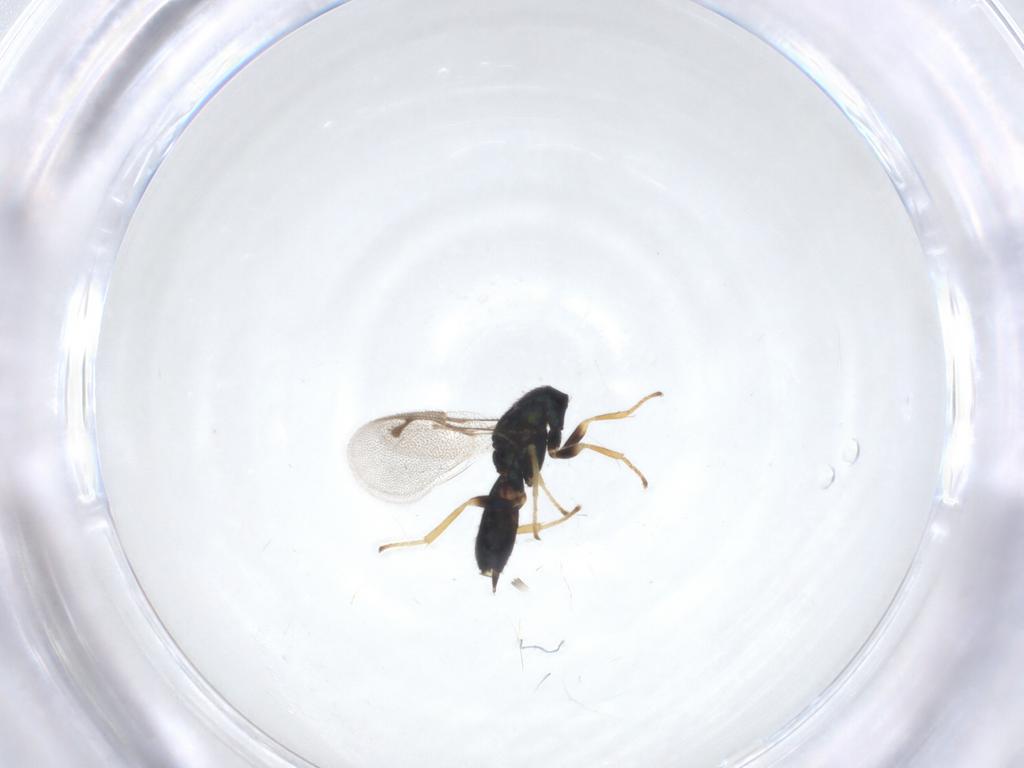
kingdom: Animalia
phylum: Arthropoda
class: Insecta
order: Hymenoptera
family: Pirenidae
